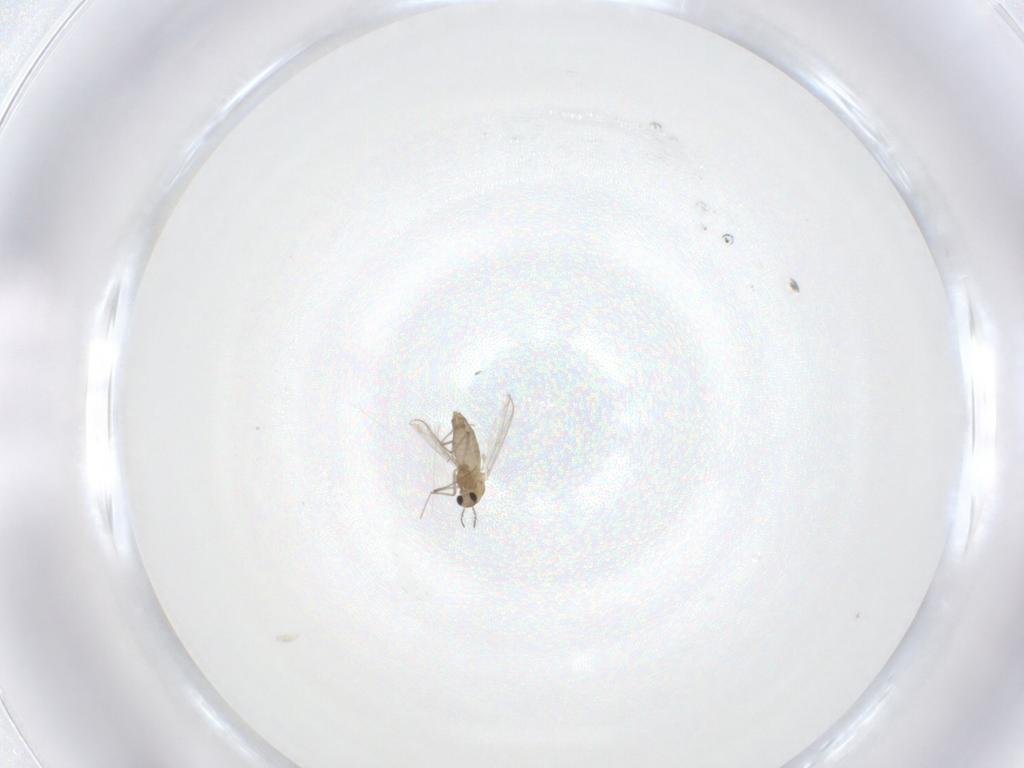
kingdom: Animalia
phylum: Arthropoda
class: Insecta
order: Diptera
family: Chironomidae
